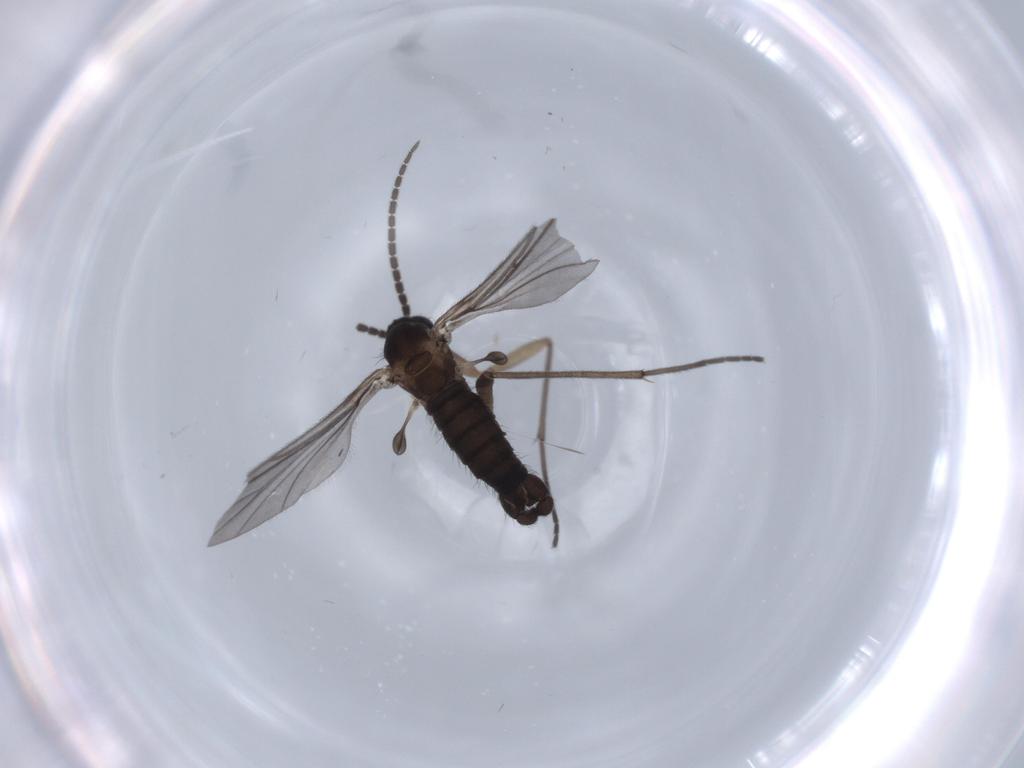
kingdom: Animalia
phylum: Arthropoda
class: Insecta
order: Diptera
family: Sciaridae
